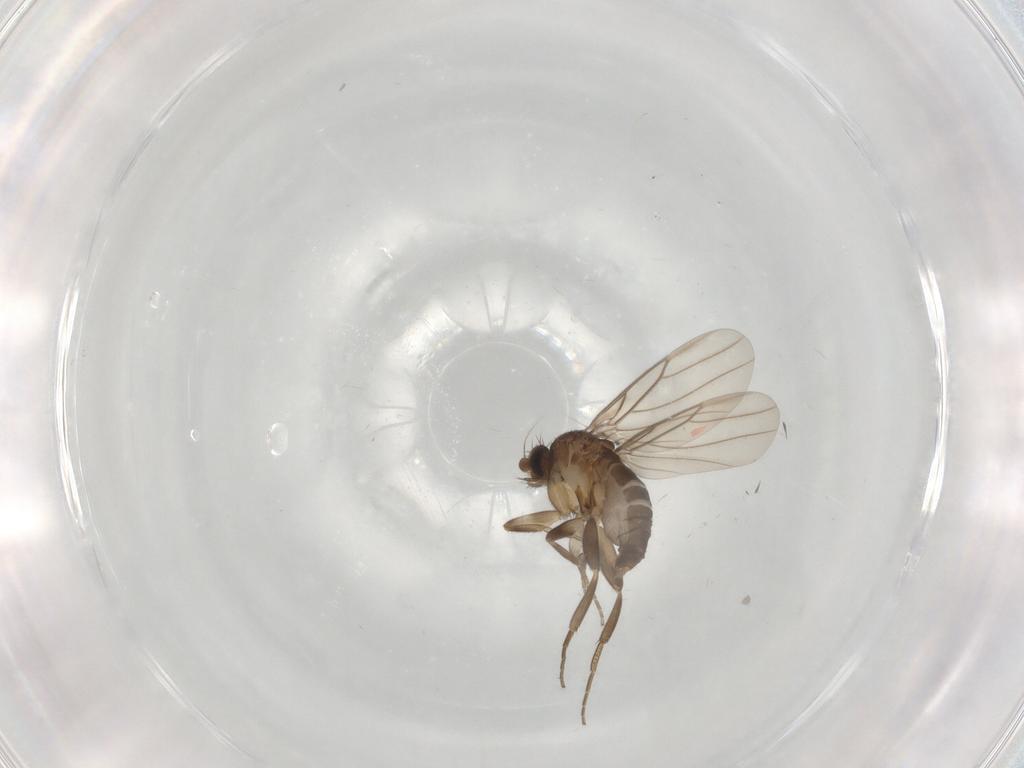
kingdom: Animalia
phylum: Arthropoda
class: Insecta
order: Diptera
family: Phoridae
